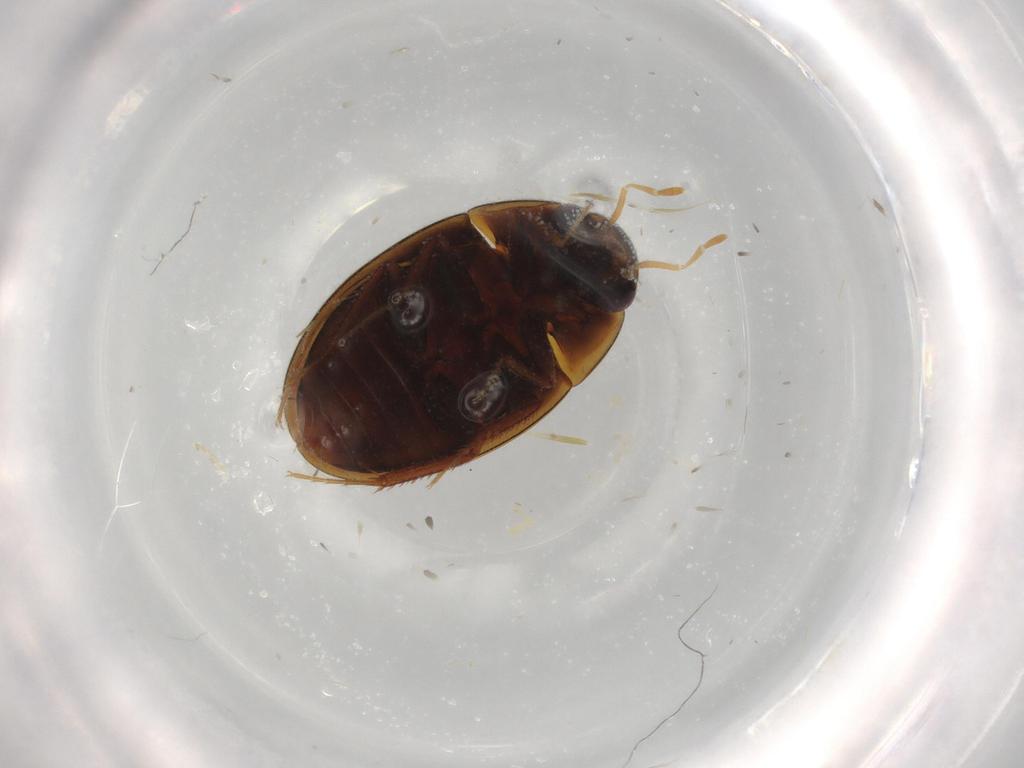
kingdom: Animalia
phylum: Arthropoda
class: Insecta
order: Coleoptera
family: Hydrophilidae
